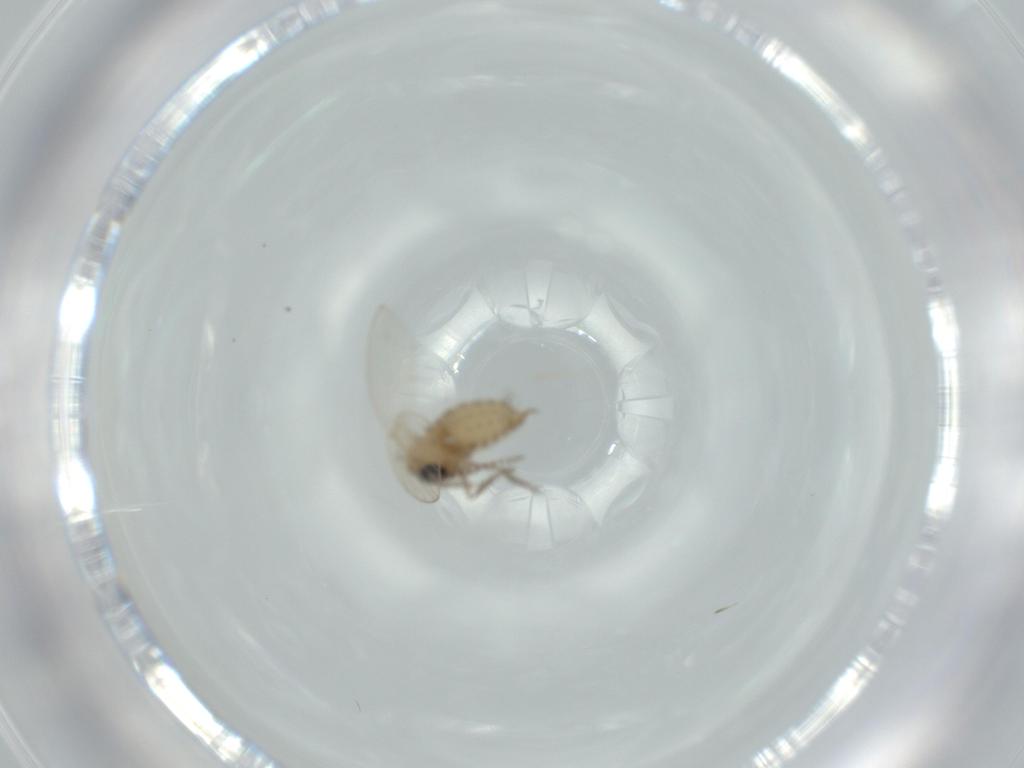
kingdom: Animalia
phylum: Arthropoda
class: Insecta
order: Diptera
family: Psychodidae
